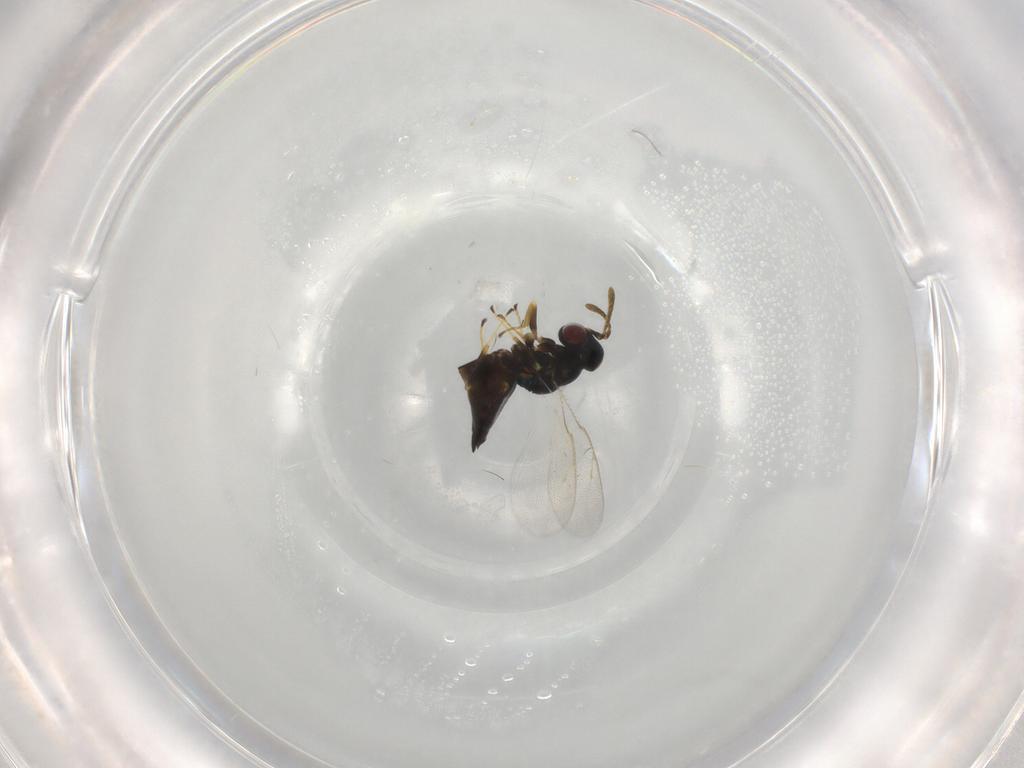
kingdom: Animalia
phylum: Arthropoda
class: Insecta
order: Hymenoptera
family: Pteromalidae
